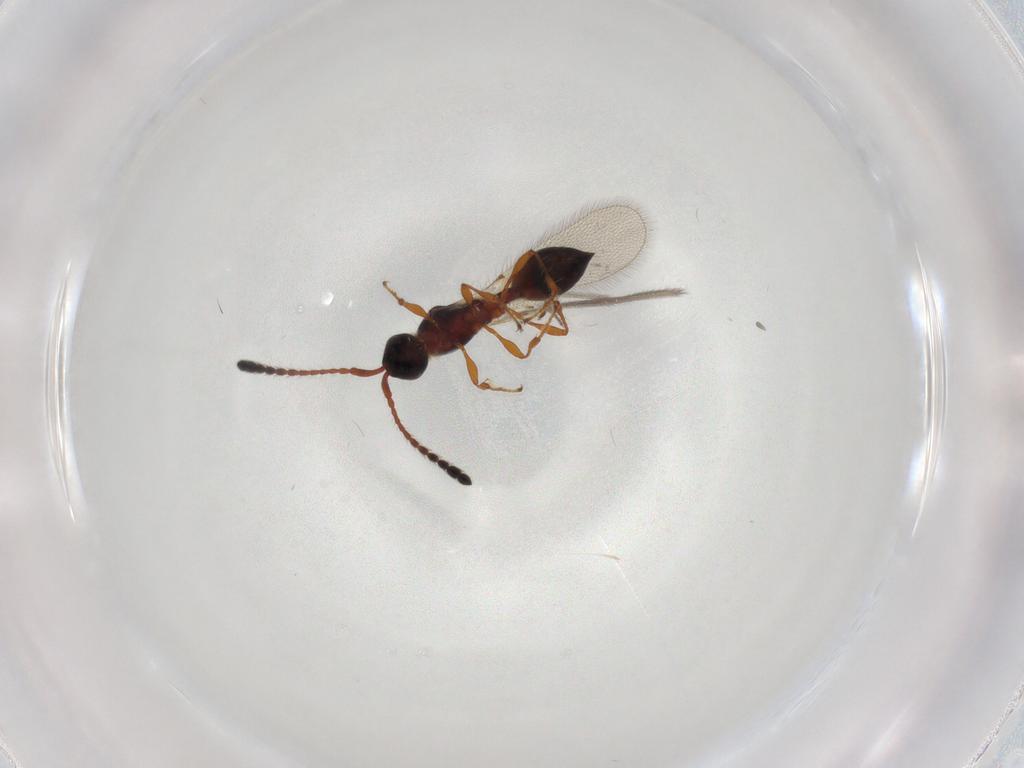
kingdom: Animalia
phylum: Arthropoda
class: Insecta
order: Hymenoptera
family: Diapriidae
